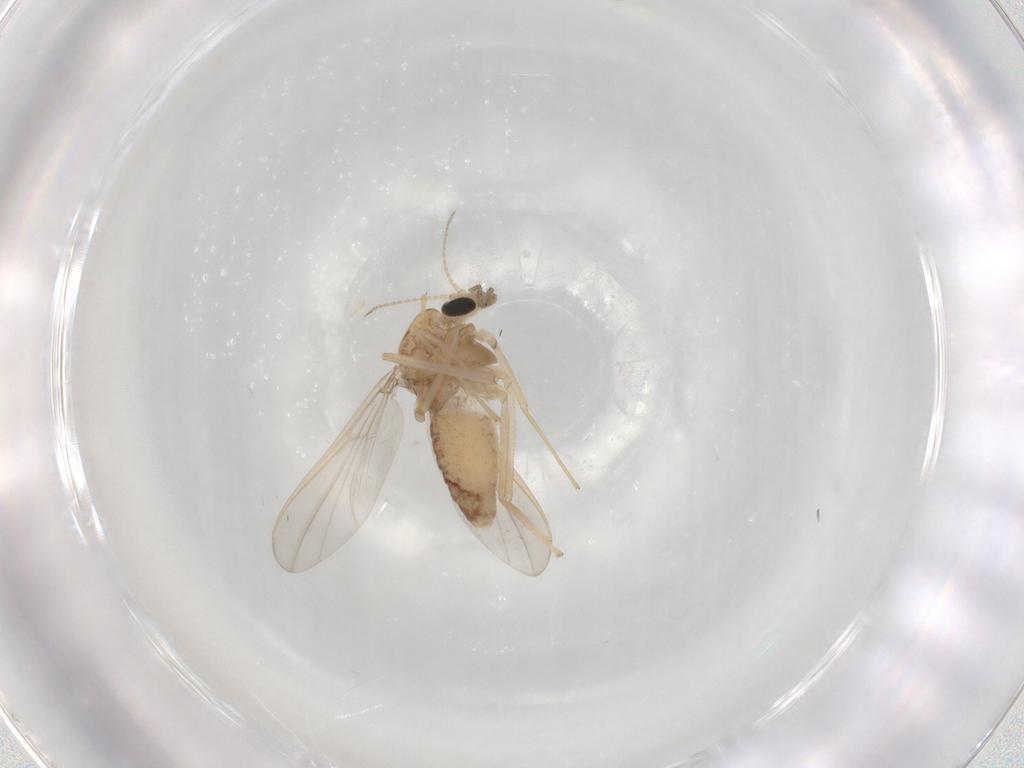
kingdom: Animalia
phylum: Arthropoda
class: Insecta
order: Diptera
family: Chironomidae
